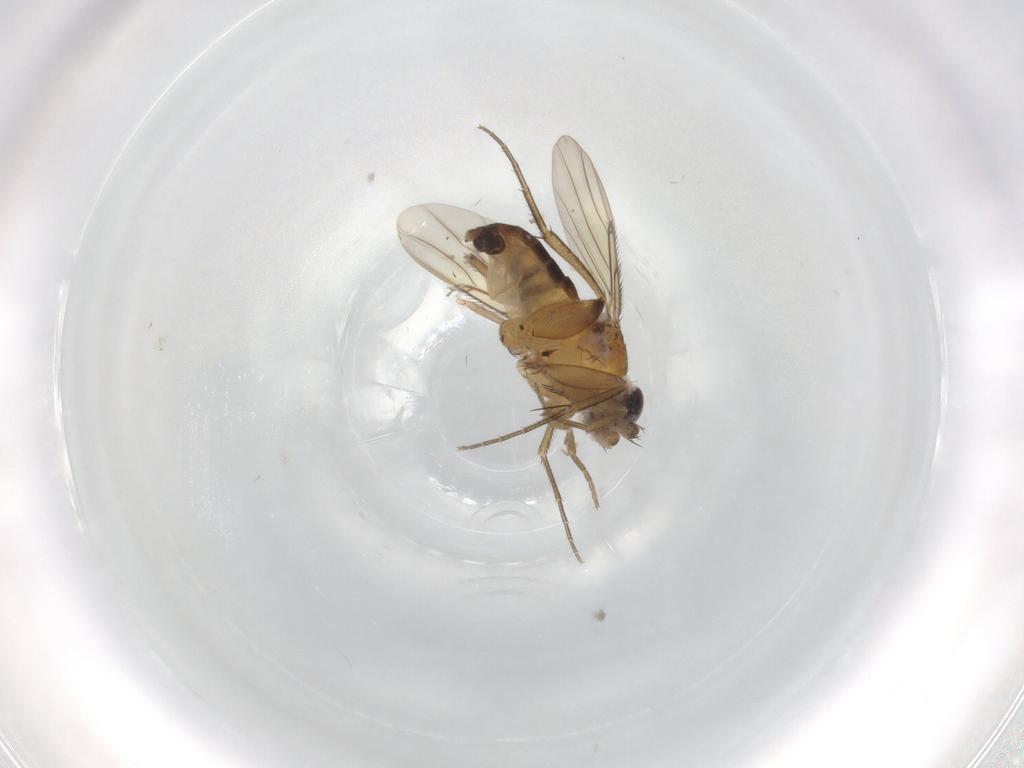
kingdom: Animalia
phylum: Arthropoda
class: Insecta
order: Diptera
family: Phoridae
